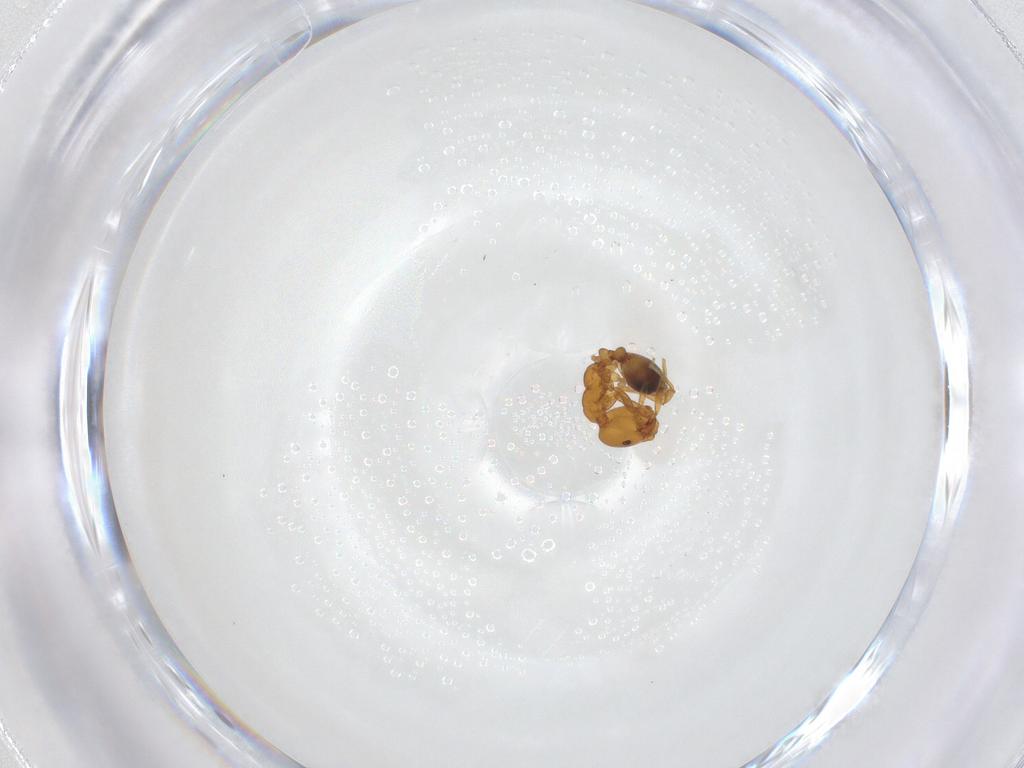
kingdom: Animalia
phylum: Arthropoda
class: Insecta
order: Hymenoptera
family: Formicidae
